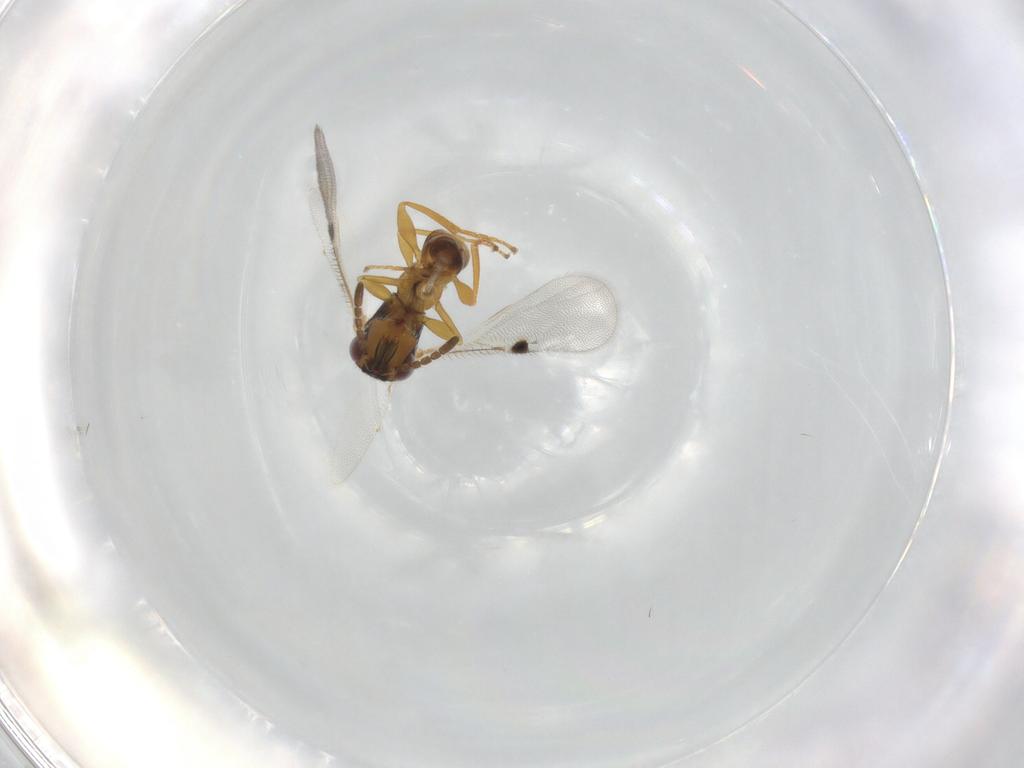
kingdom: Animalia
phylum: Arthropoda
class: Insecta
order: Hymenoptera
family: Eurytomidae
